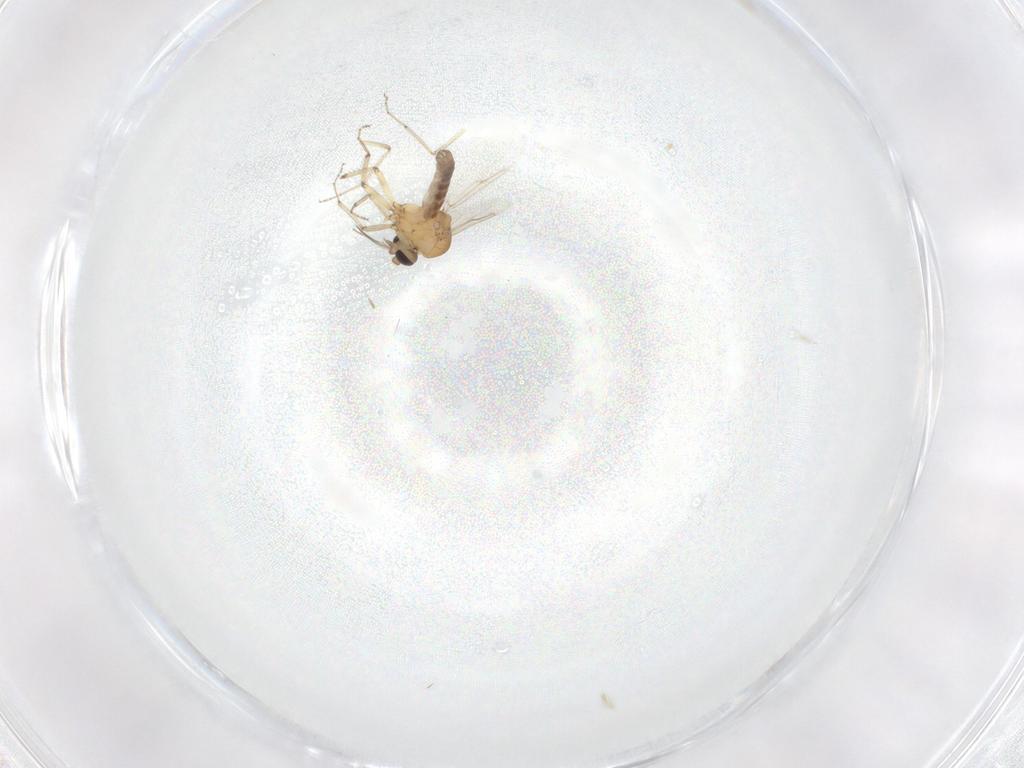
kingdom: Animalia
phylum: Arthropoda
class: Insecta
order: Diptera
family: Ceratopogonidae
